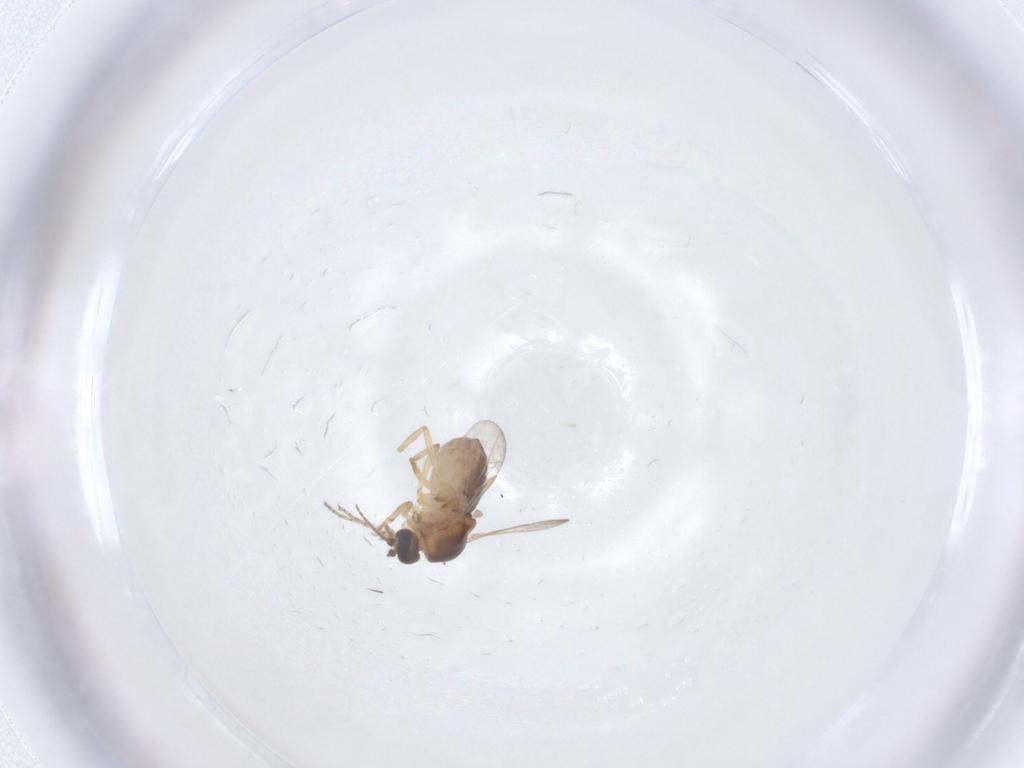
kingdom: Animalia
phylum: Arthropoda
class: Insecta
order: Diptera
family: Ceratopogonidae
